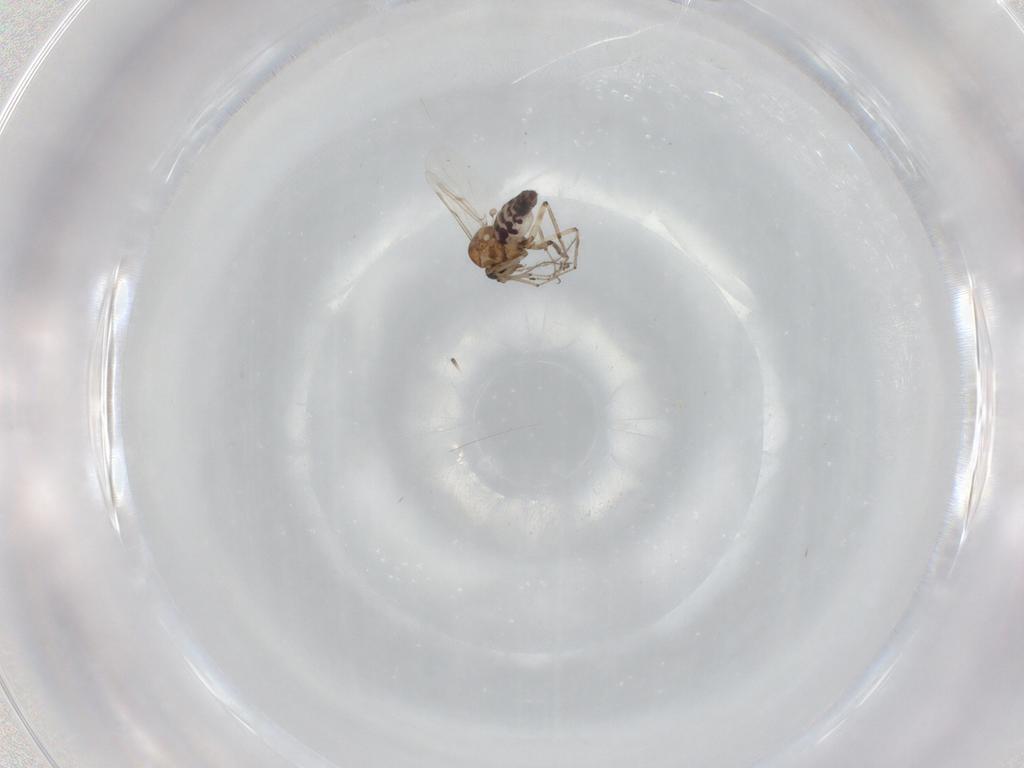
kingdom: Animalia
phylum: Arthropoda
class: Insecta
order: Diptera
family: Ceratopogonidae
